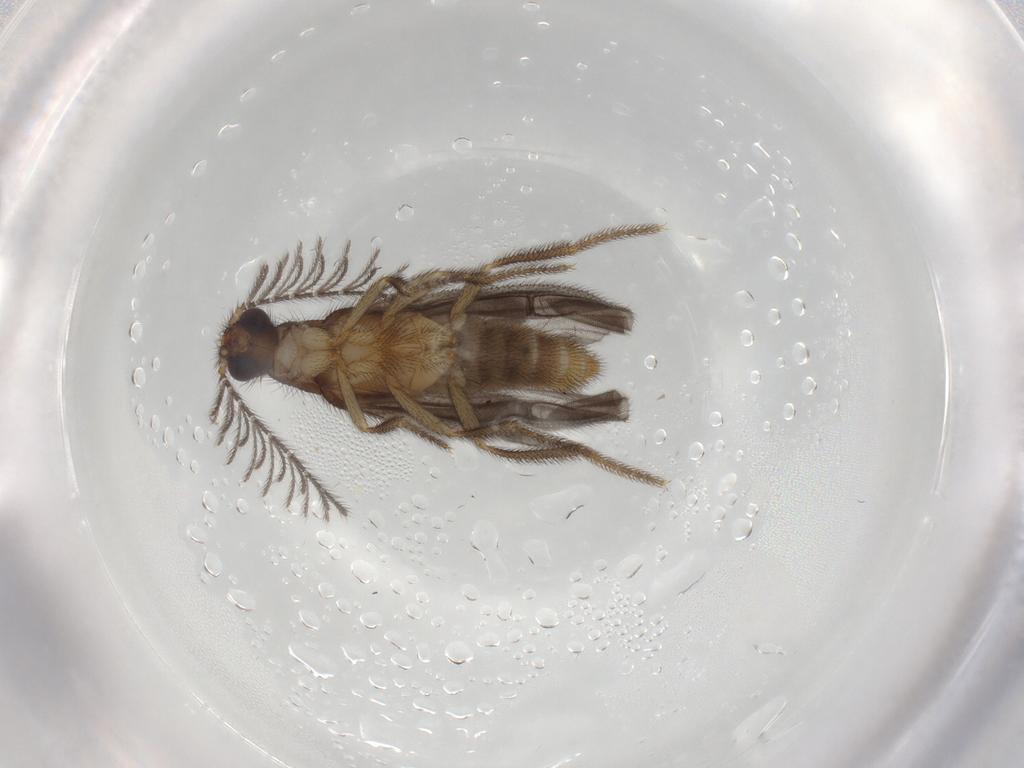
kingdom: Animalia
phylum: Arthropoda
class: Insecta
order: Coleoptera
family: Phengodidae
